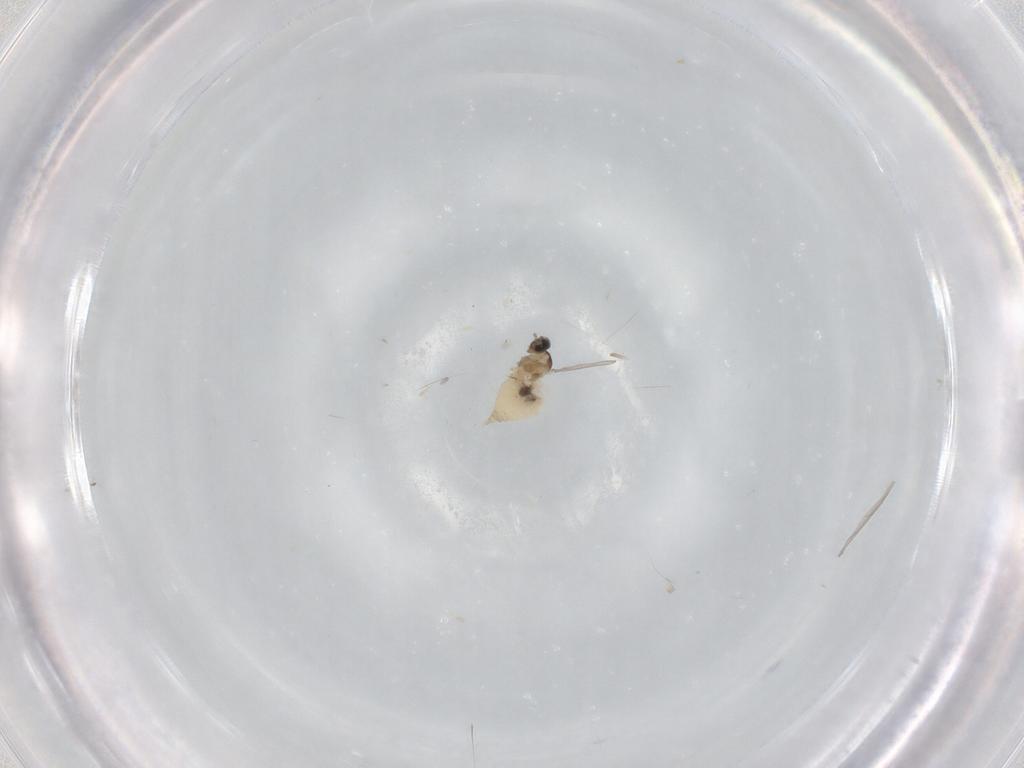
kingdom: Animalia
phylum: Arthropoda
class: Insecta
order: Diptera
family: Cecidomyiidae
